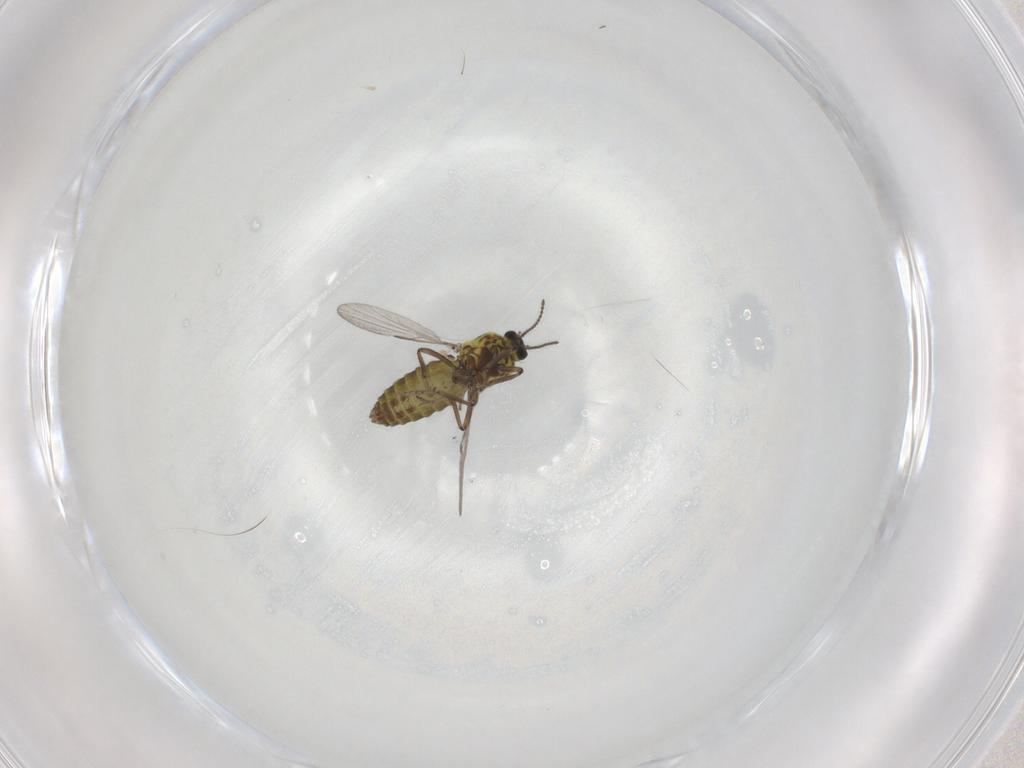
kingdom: Animalia
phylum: Arthropoda
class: Insecta
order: Diptera
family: Ceratopogonidae
